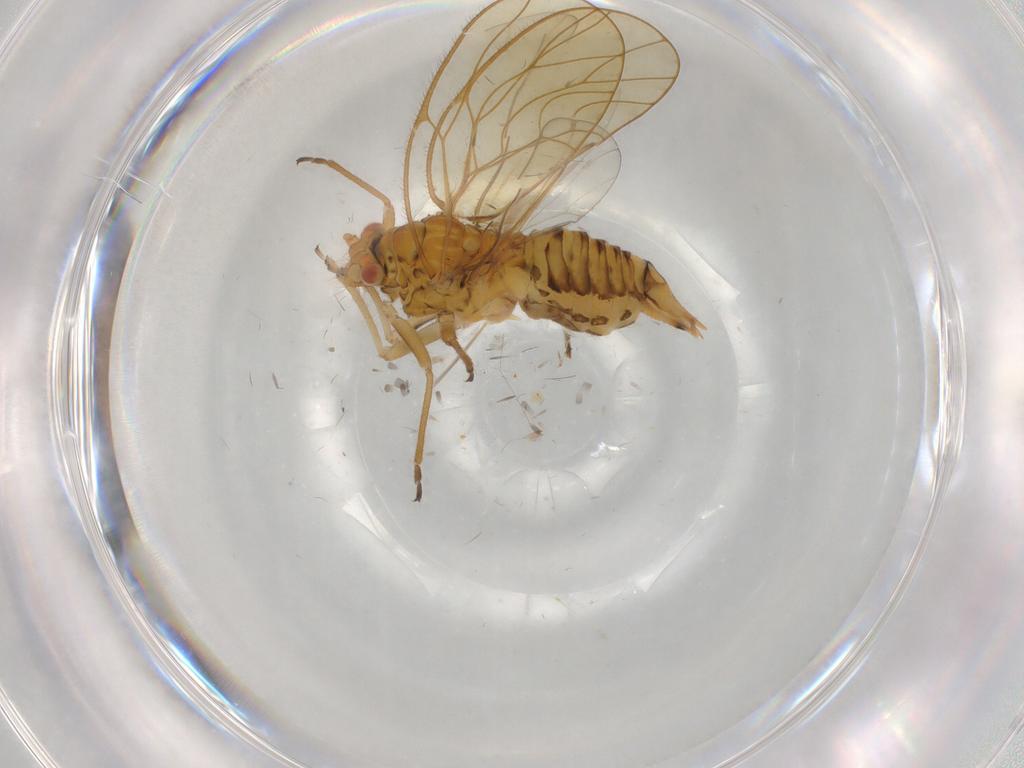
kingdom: Animalia
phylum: Arthropoda
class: Insecta
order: Hemiptera
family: Psyllidae
